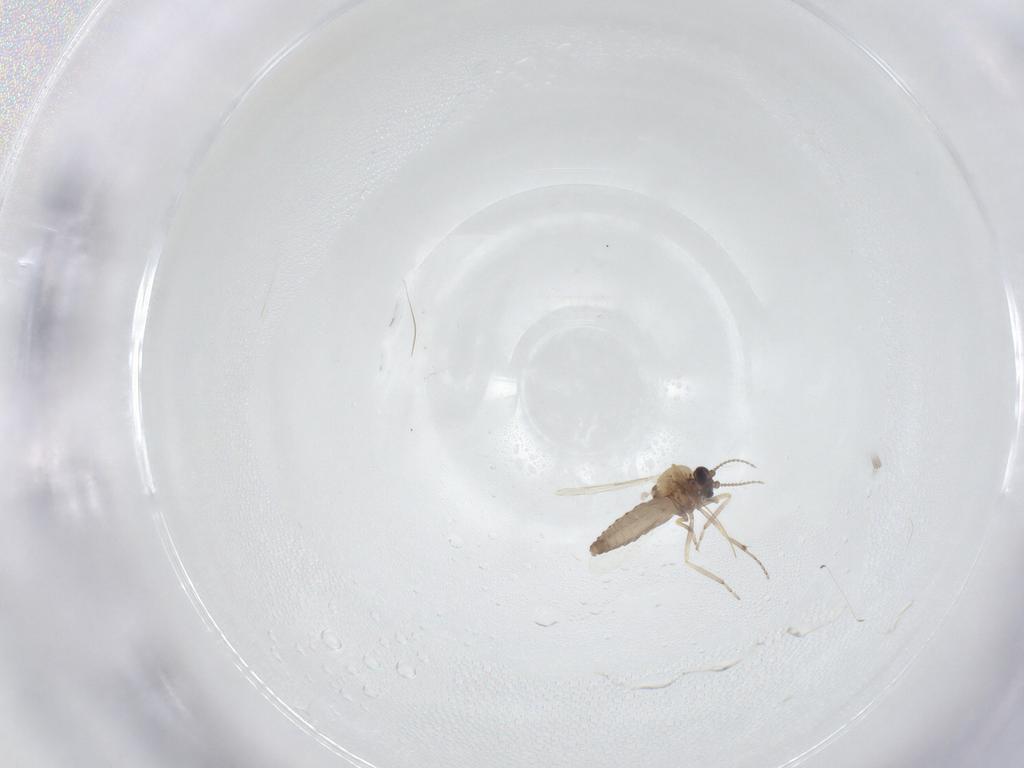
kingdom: Animalia
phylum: Arthropoda
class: Insecta
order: Diptera
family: Ceratopogonidae
